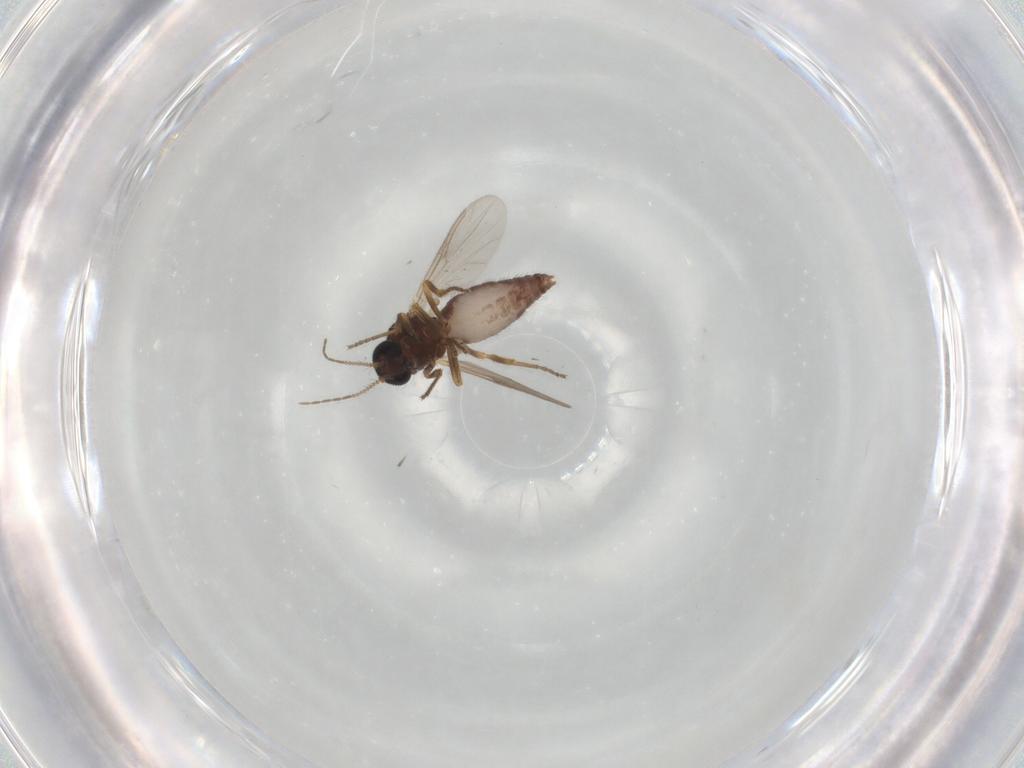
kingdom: Animalia
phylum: Arthropoda
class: Insecta
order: Diptera
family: Ceratopogonidae
